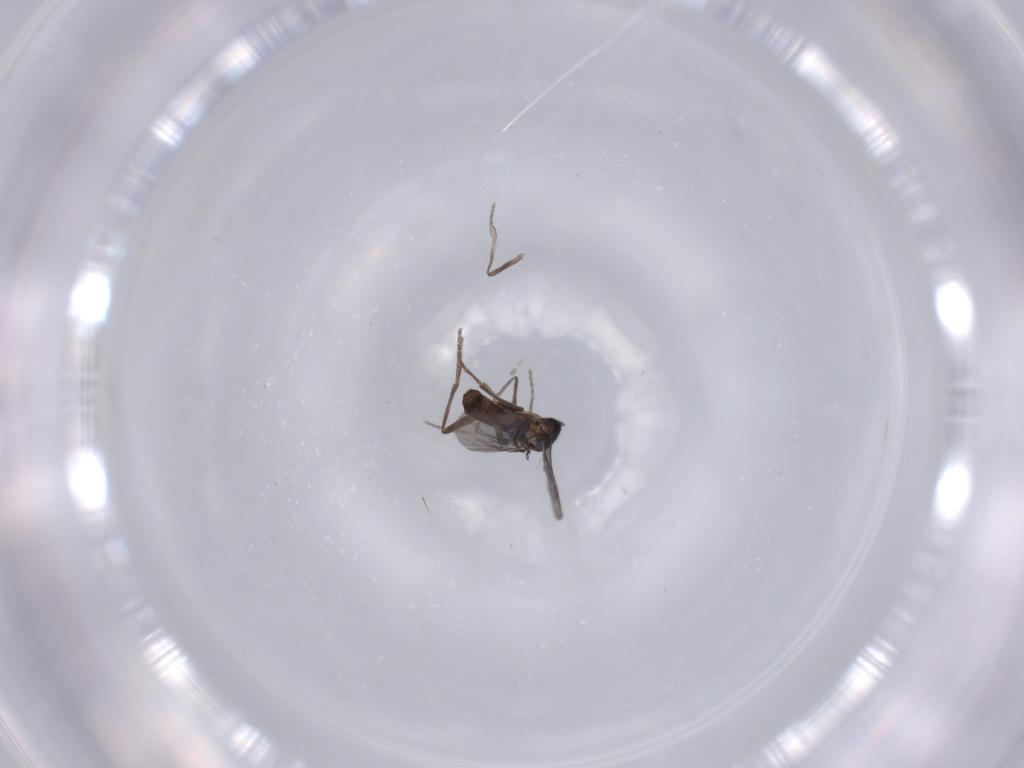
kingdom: Animalia
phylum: Arthropoda
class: Insecta
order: Diptera
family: Phoridae
